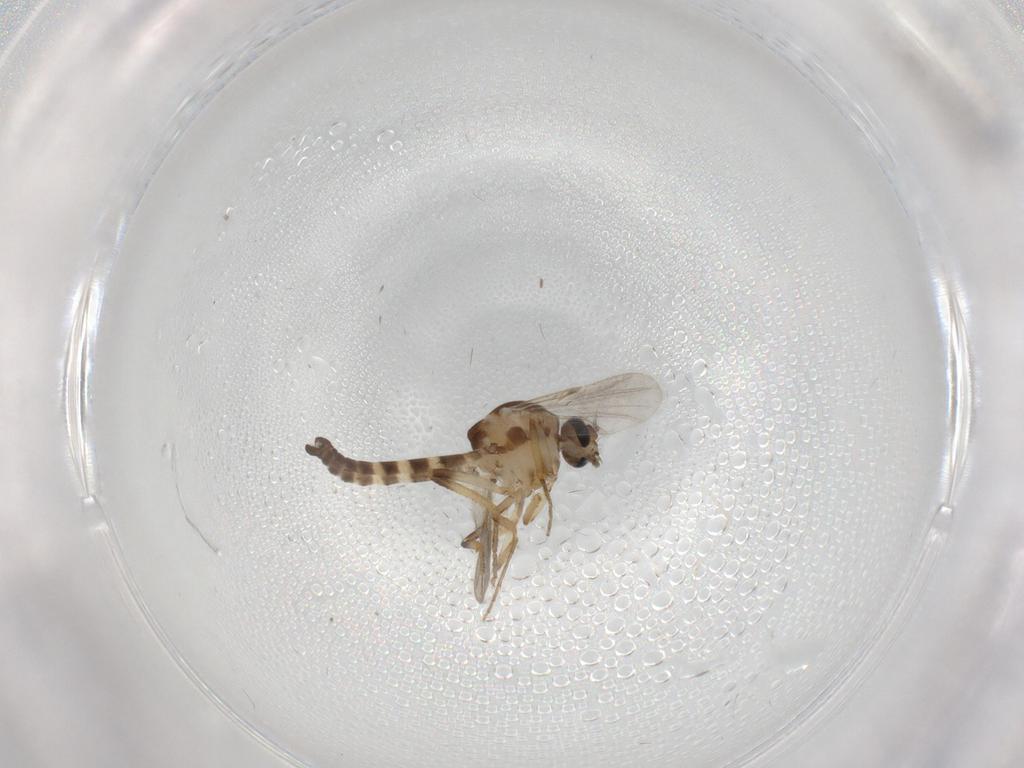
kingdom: Animalia
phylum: Arthropoda
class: Insecta
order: Diptera
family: Ceratopogonidae
